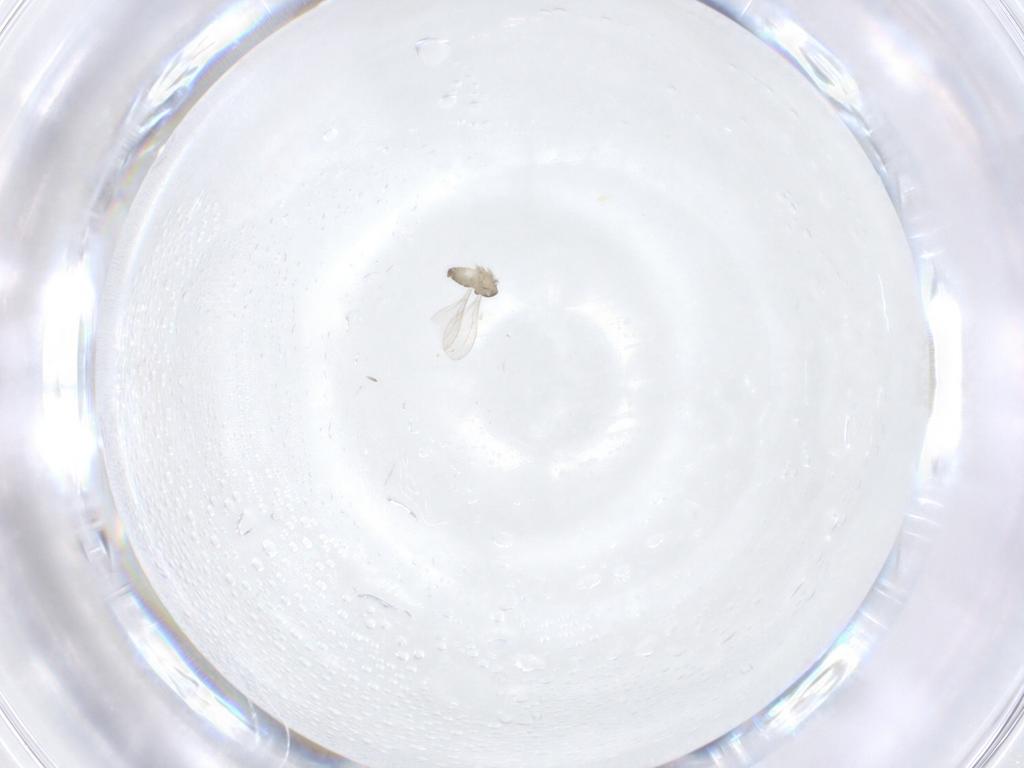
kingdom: Animalia
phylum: Arthropoda
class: Insecta
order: Diptera
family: Cecidomyiidae
